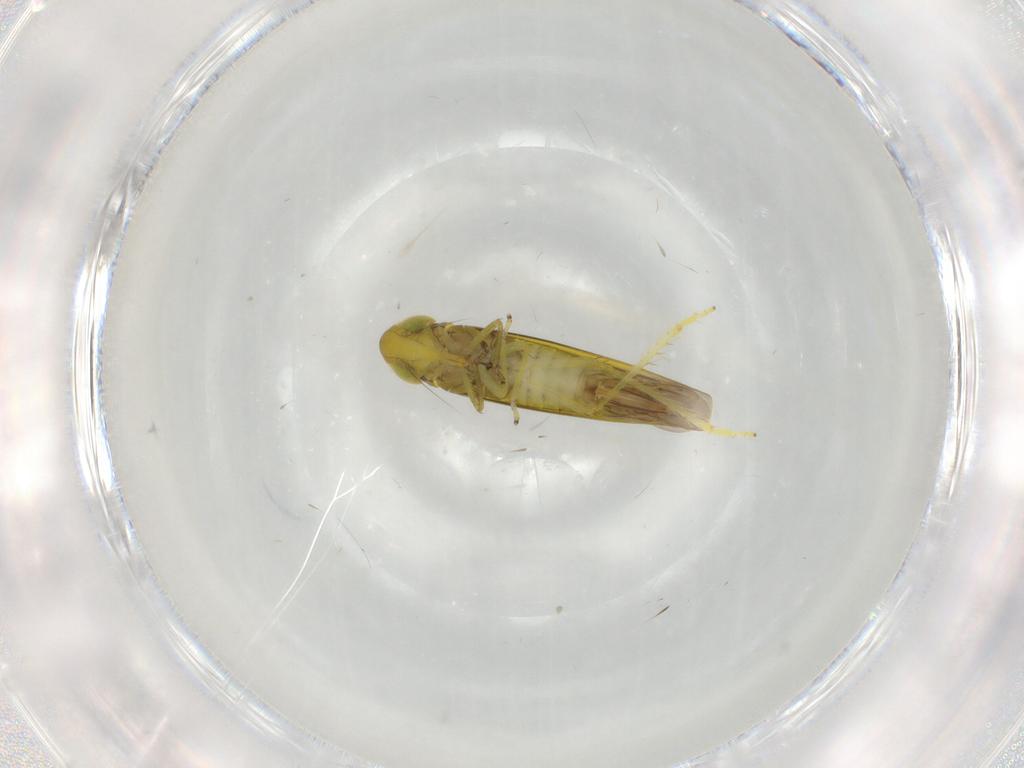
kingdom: Animalia
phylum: Arthropoda
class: Insecta
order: Hemiptera
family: Cicadellidae
